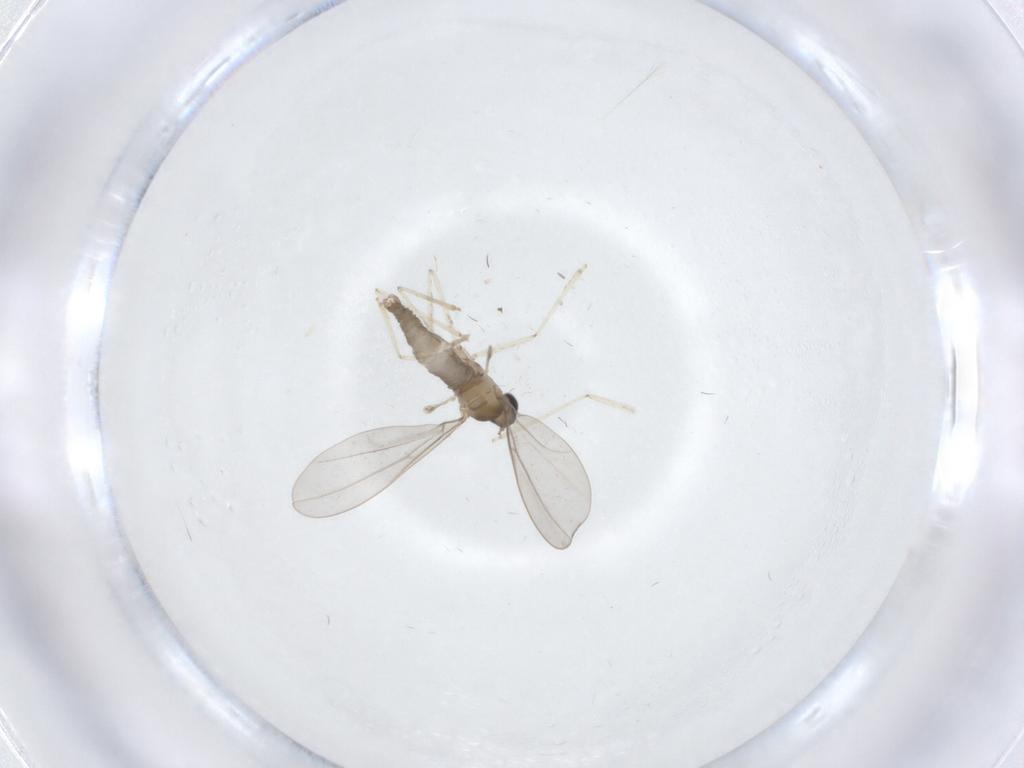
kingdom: Animalia
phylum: Arthropoda
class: Insecta
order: Diptera
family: Cecidomyiidae
